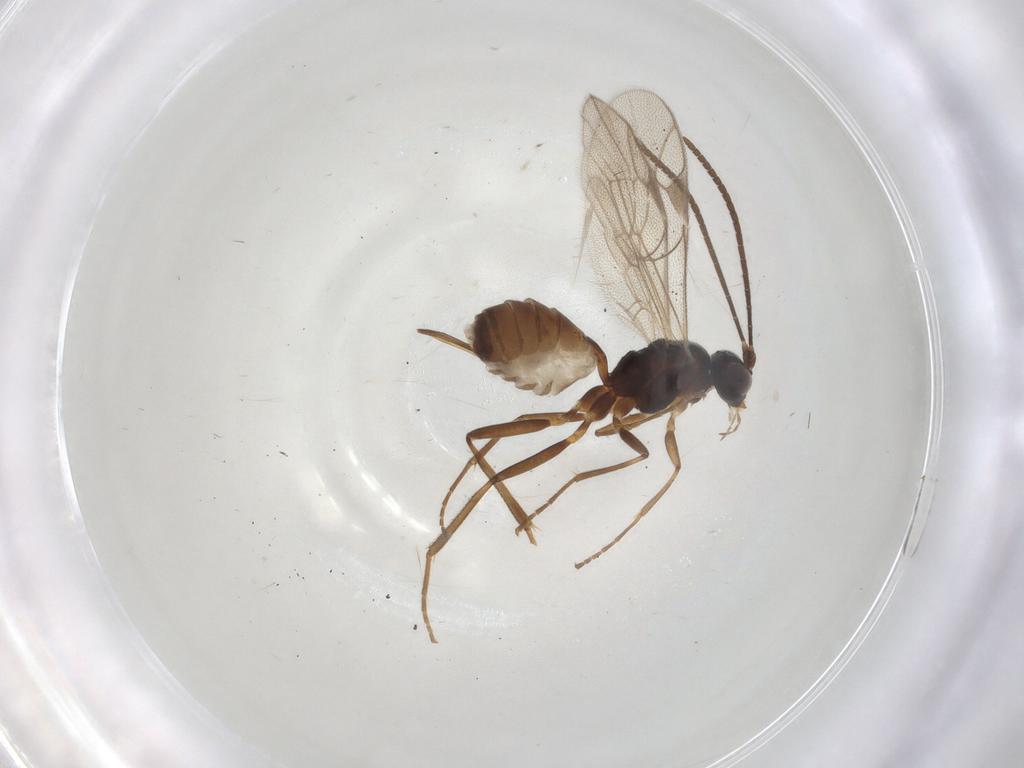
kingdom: Animalia
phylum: Arthropoda
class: Insecta
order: Hymenoptera
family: Ichneumonidae
